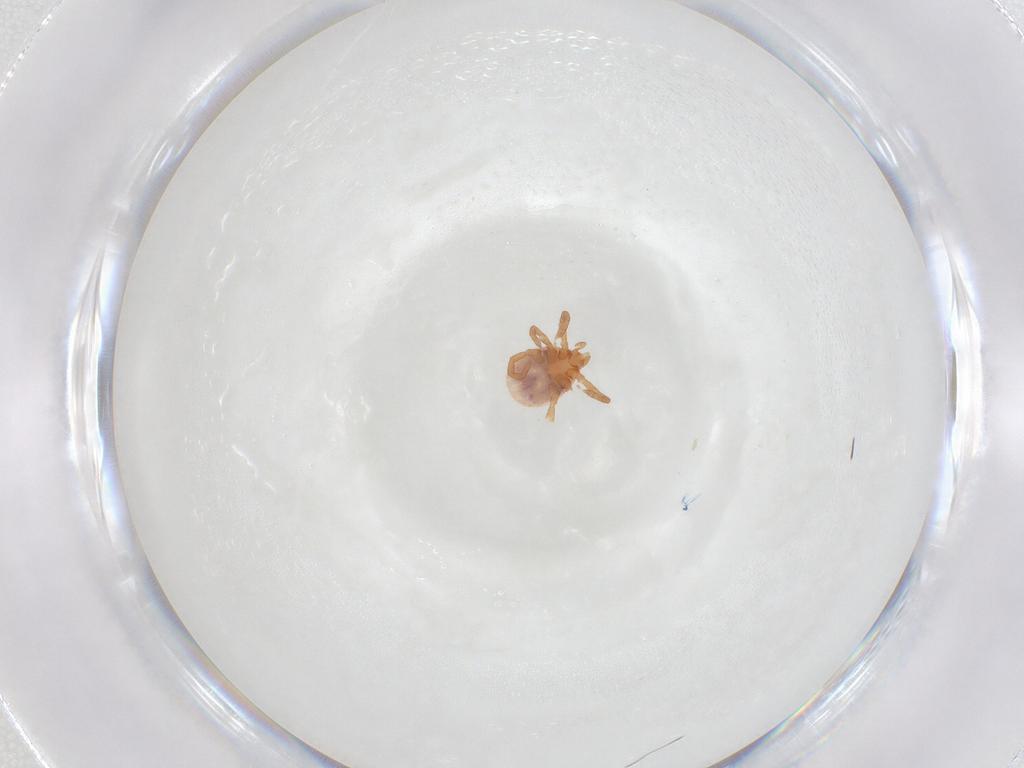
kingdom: Animalia
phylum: Arthropoda
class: Arachnida
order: Ixodida
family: Ixodidae
